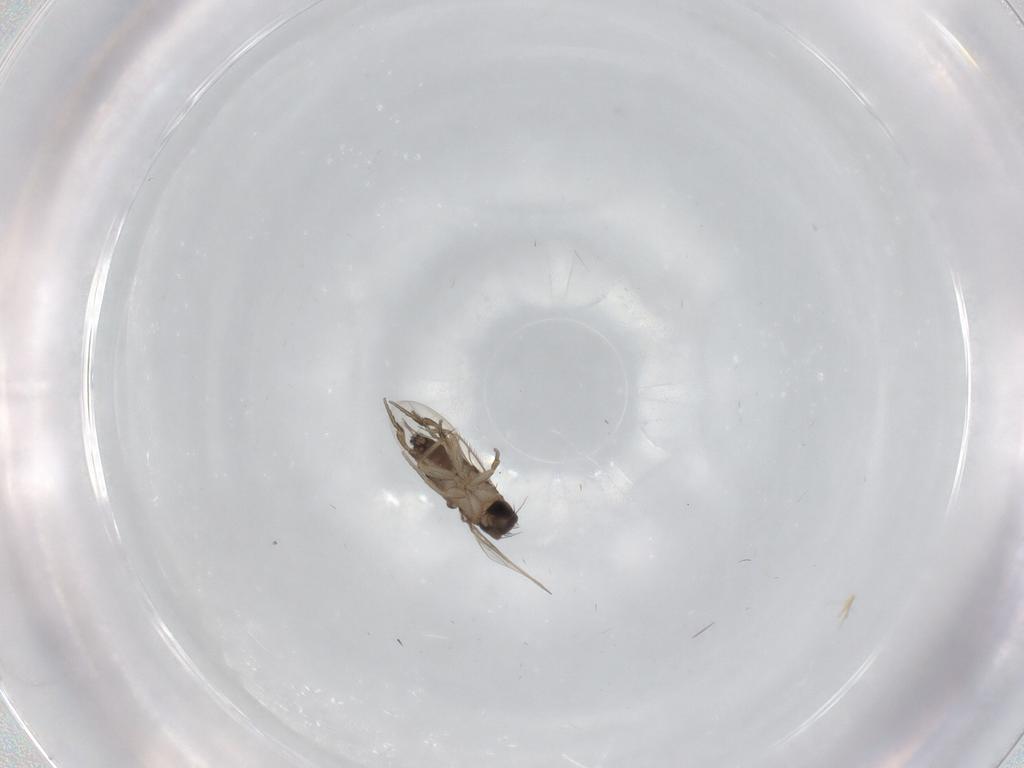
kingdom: Animalia
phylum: Arthropoda
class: Insecta
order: Diptera
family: Phoridae
